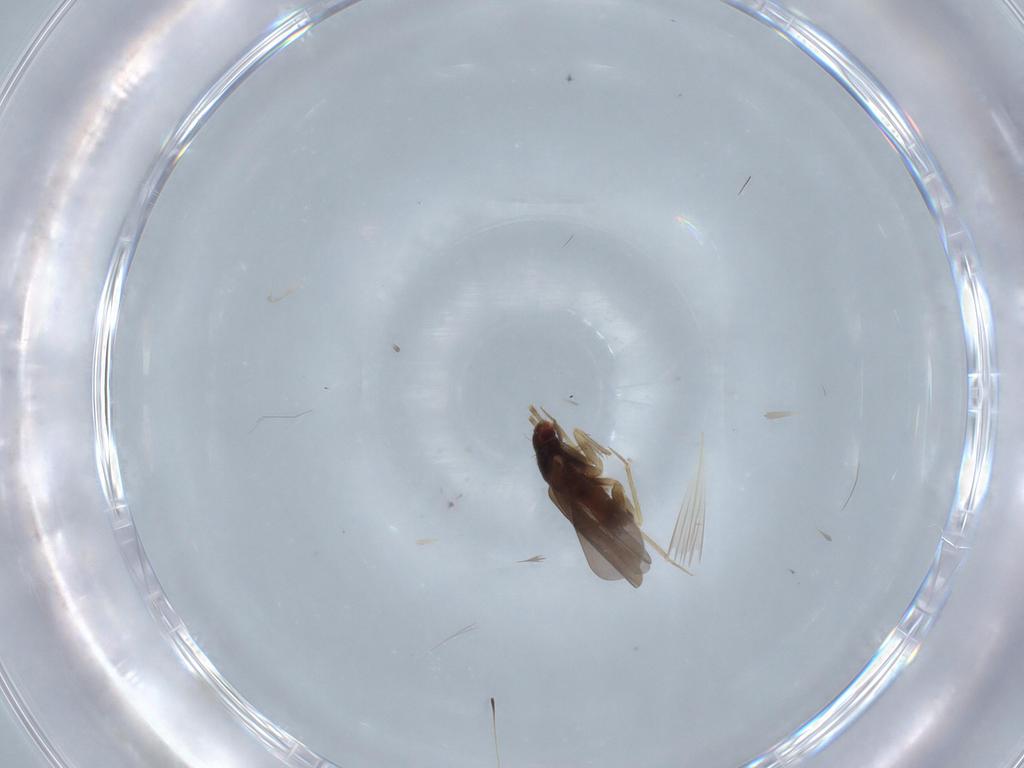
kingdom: Animalia
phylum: Arthropoda
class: Insecta
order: Hemiptera
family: Ceratocombidae
